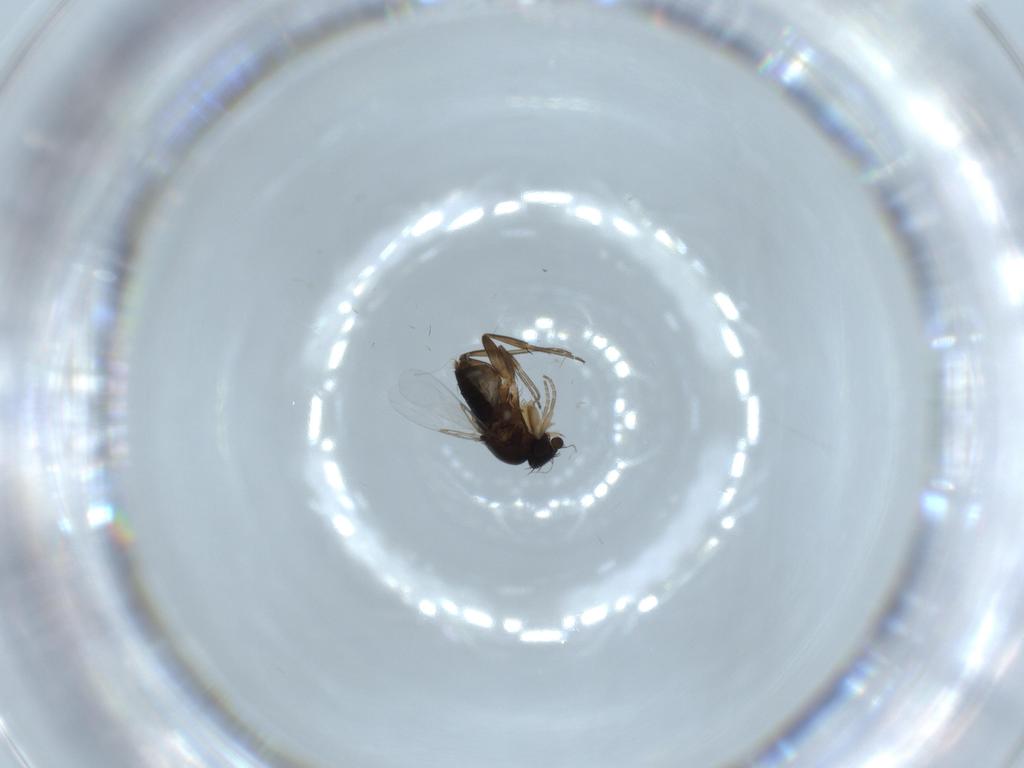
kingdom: Animalia
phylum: Arthropoda
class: Insecta
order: Diptera
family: Phoridae
